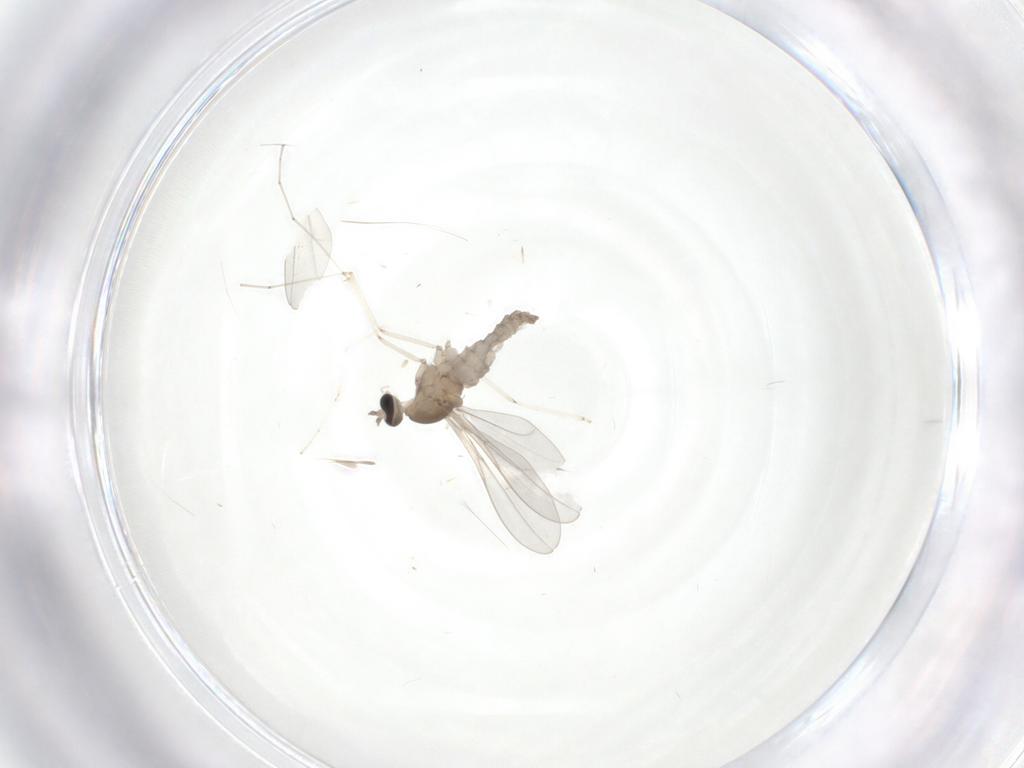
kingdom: Animalia
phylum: Arthropoda
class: Insecta
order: Diptera
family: Cecidomyiidae
